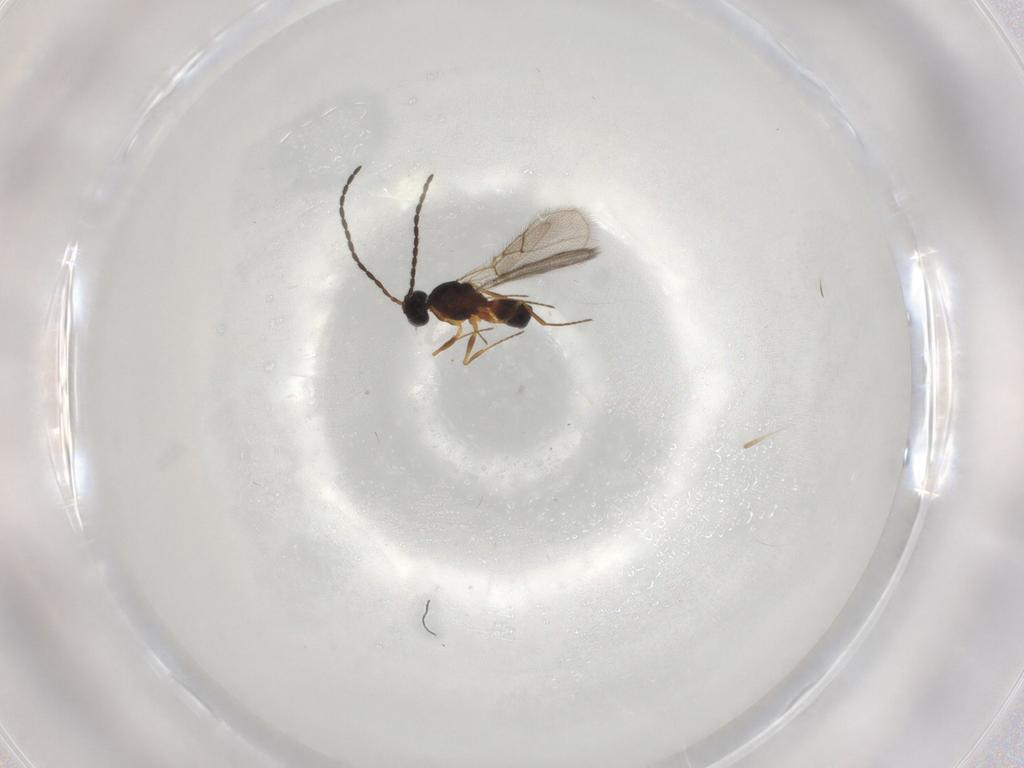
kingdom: Animalia
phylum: Arthropoda
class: Insecta
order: Hymenoptera
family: Figitidae
